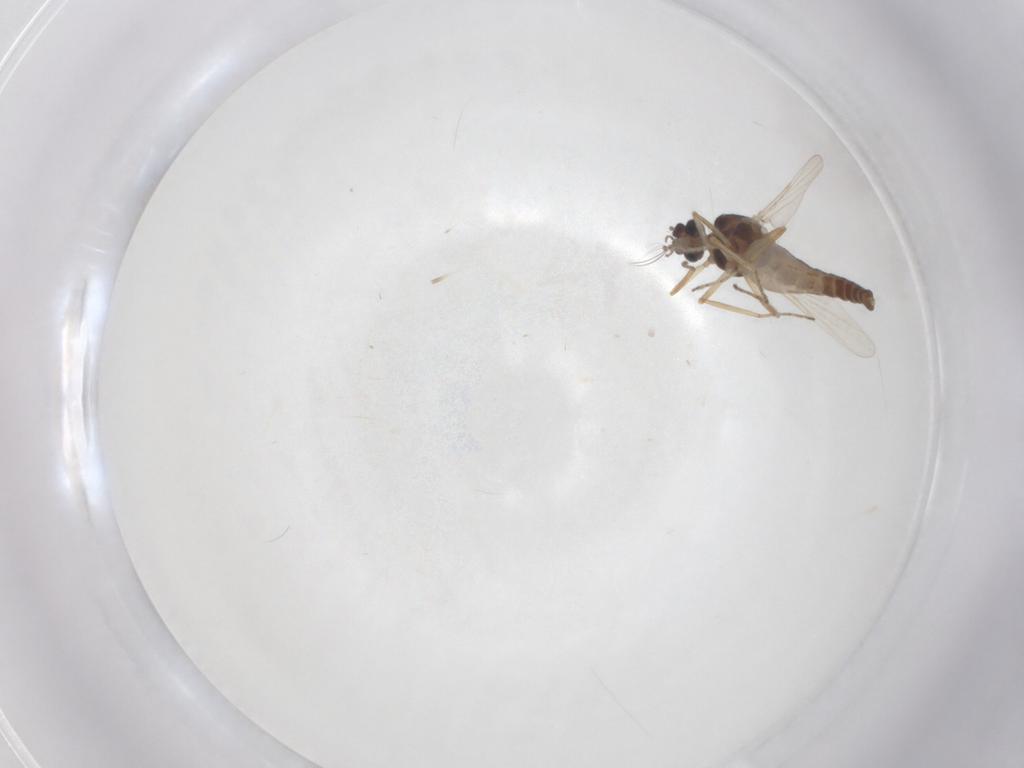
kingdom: Animalia
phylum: Arthropoda
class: Insecta
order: Diptera
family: Ceratopogonidae
